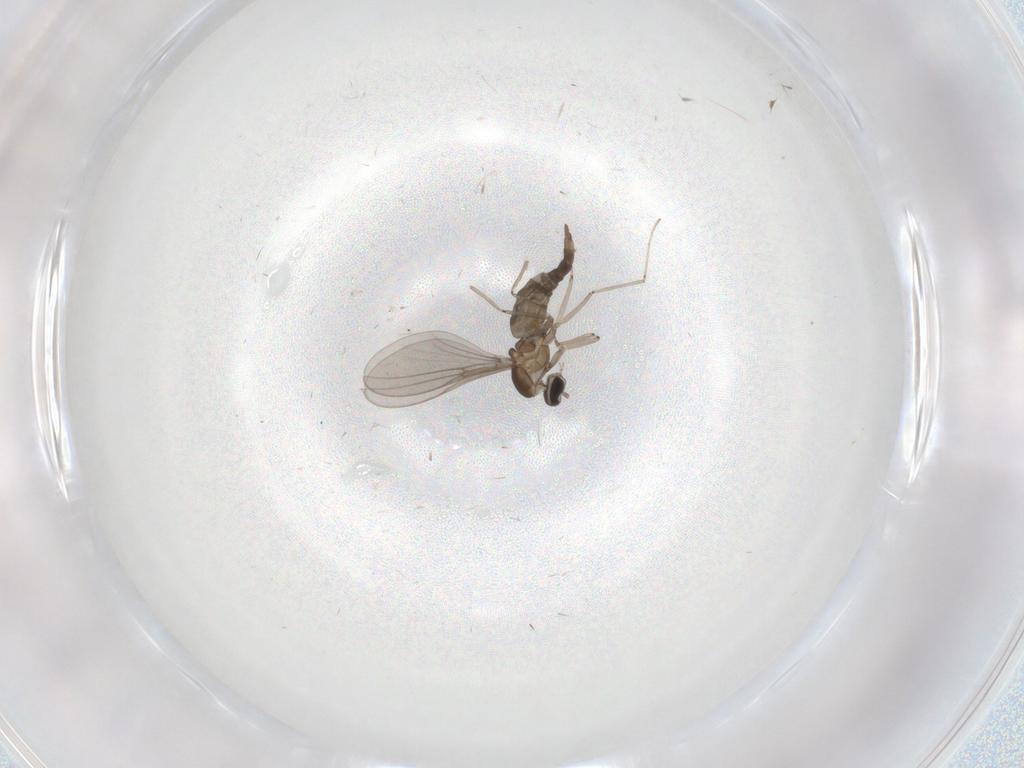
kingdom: Animalia
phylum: Arthropoda
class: Insecta
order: Diptera
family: Cecidomyiidae
